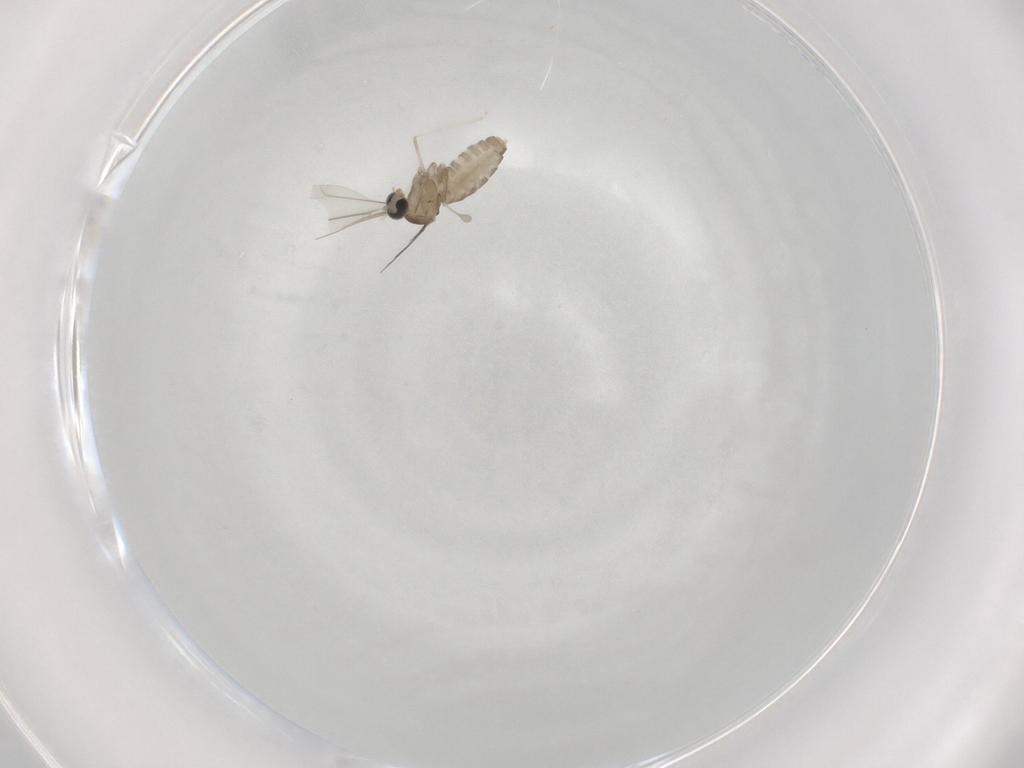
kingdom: Animalia
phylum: Arthropoda
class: Insecta
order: Diptera
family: Cecidomyiidae
